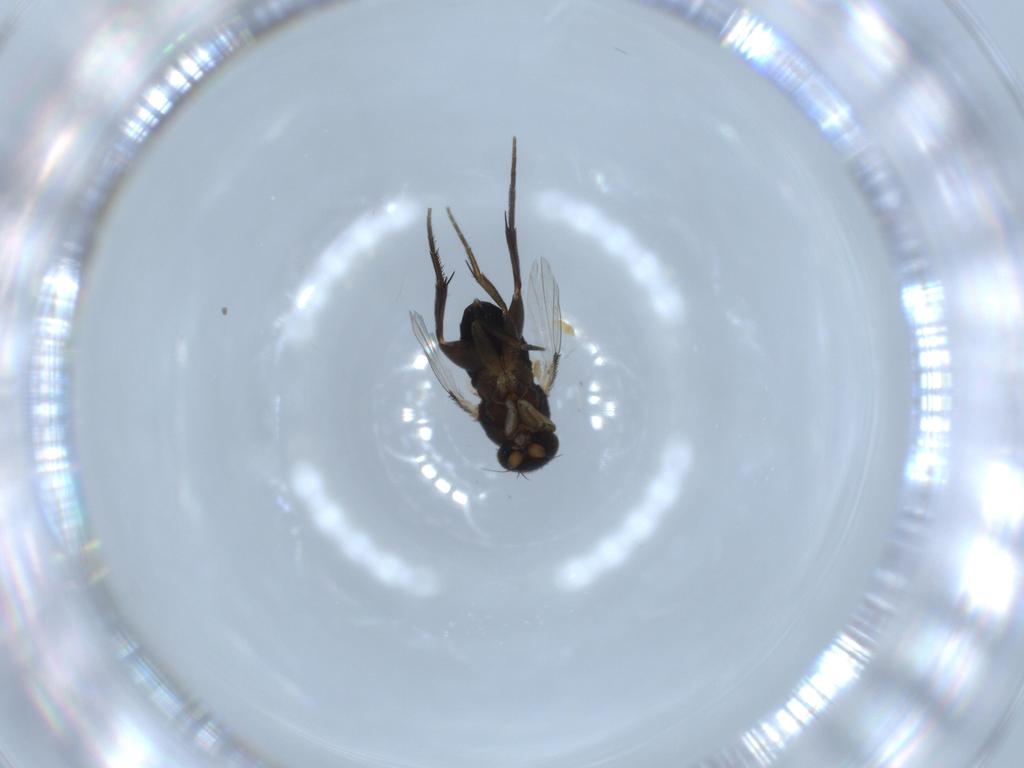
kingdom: Animalia
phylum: Arthropoda
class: Insecta
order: Diptera
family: Phoridae
